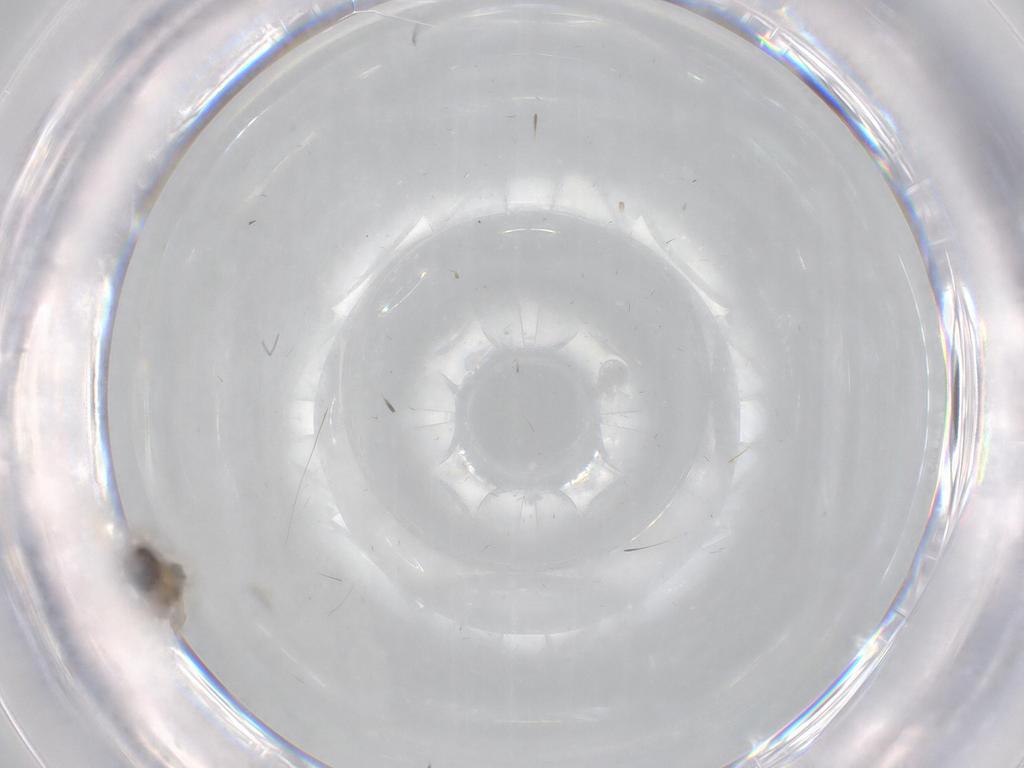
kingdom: Animalia
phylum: Arthropoda
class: Insecta
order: Diptera
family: Cecidomyiidae
